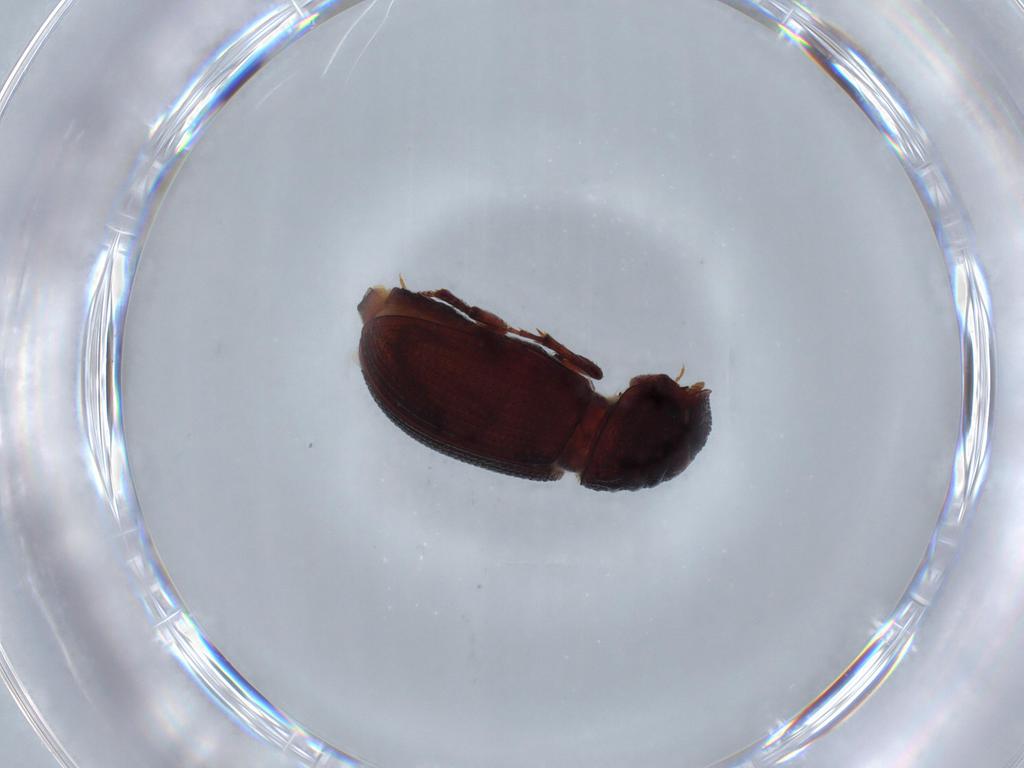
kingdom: Animalia
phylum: Arthropoda
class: Insecta
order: Coleoptera
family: Scarabaeidae
